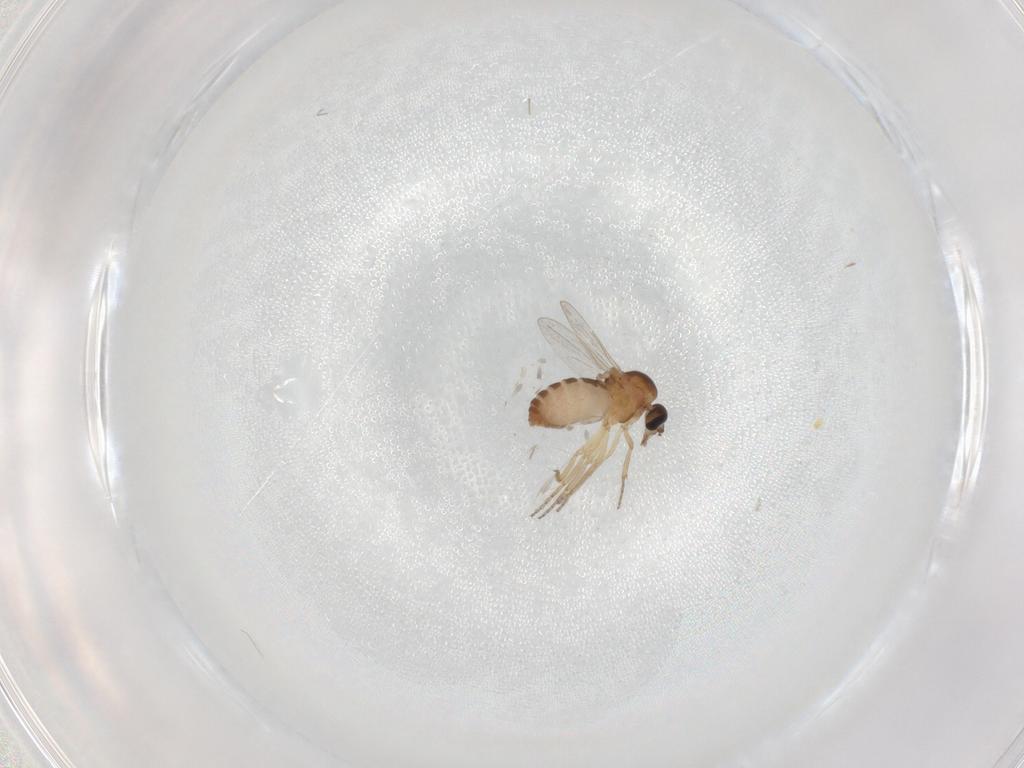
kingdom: Animalia
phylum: Arthropoda
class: Insecta
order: Diptera
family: Ceratopogonidae
